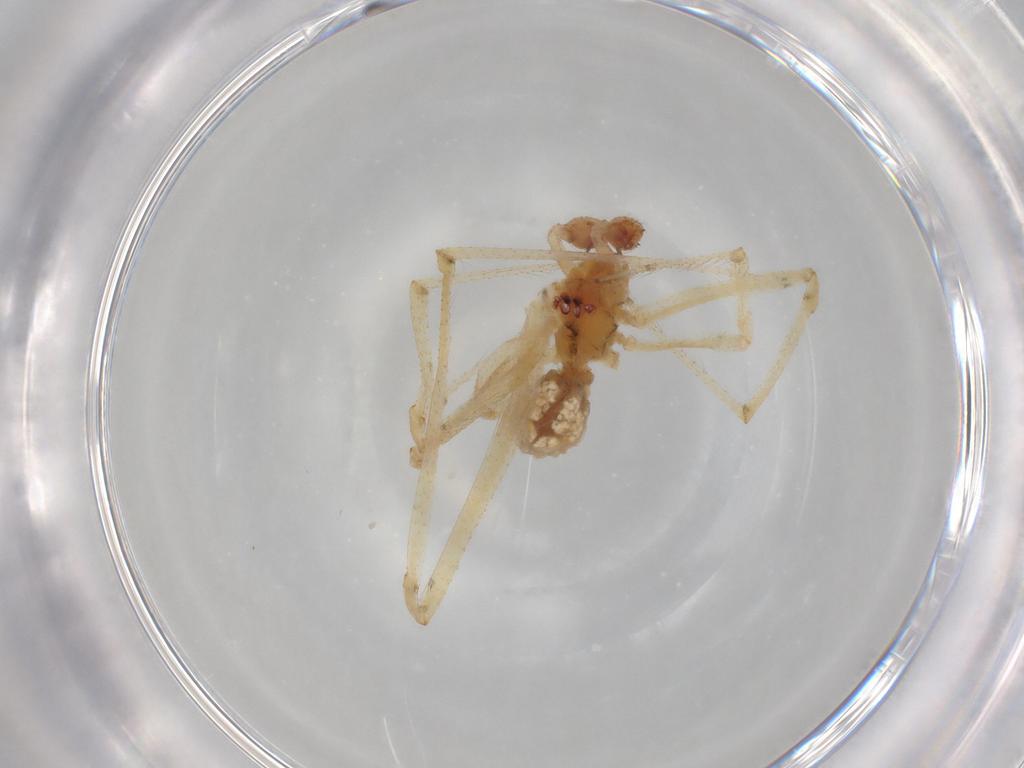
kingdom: Animalia
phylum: Arthropoda
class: Arachnida
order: Araneae
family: Theridiidae
